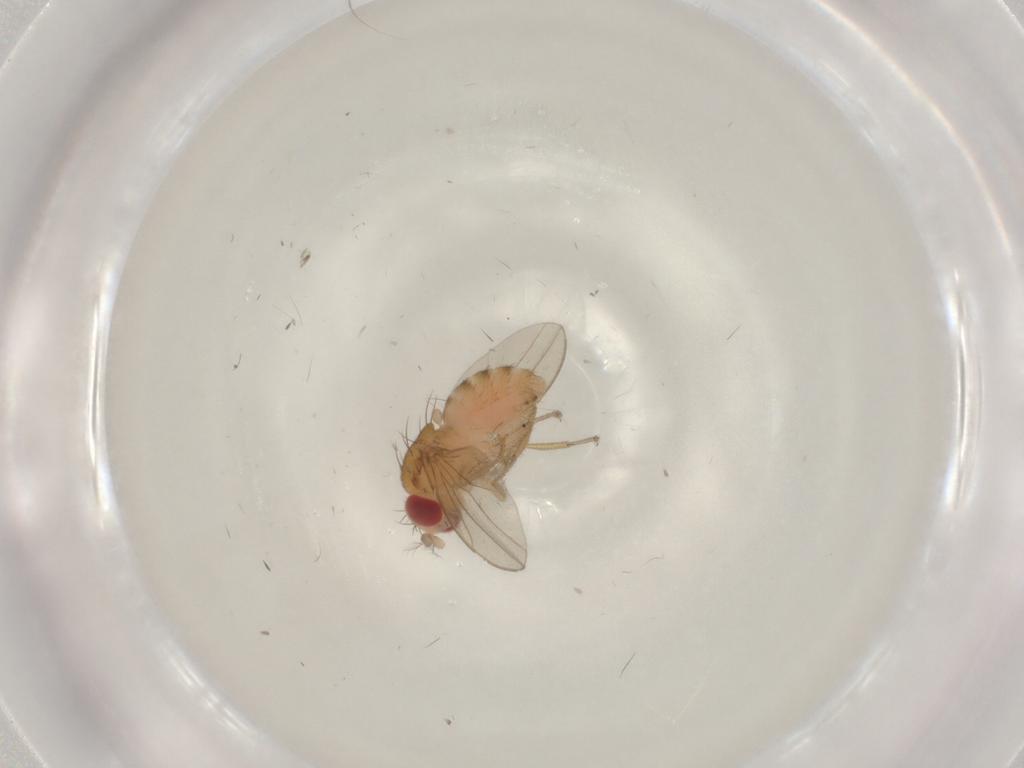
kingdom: Animalia
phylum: Arthropoda
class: Insecta
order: Diptera
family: Drosophilidae
